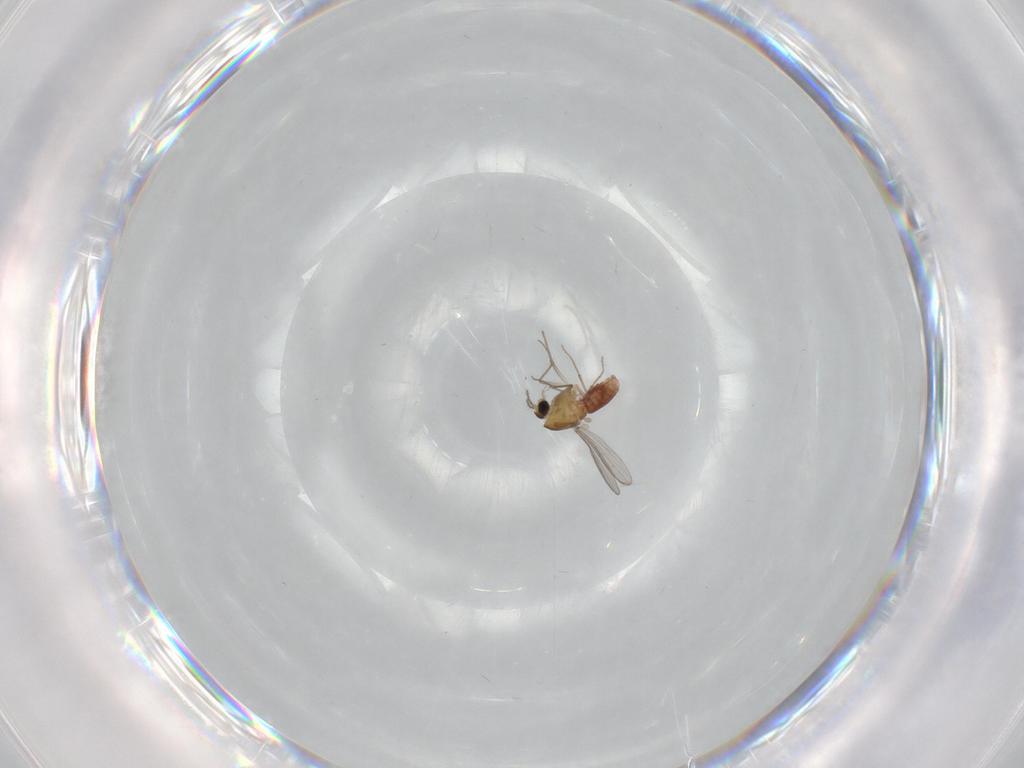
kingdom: Animalia
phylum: Arthropoda
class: Insecta
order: Diptera
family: Chironomidae
